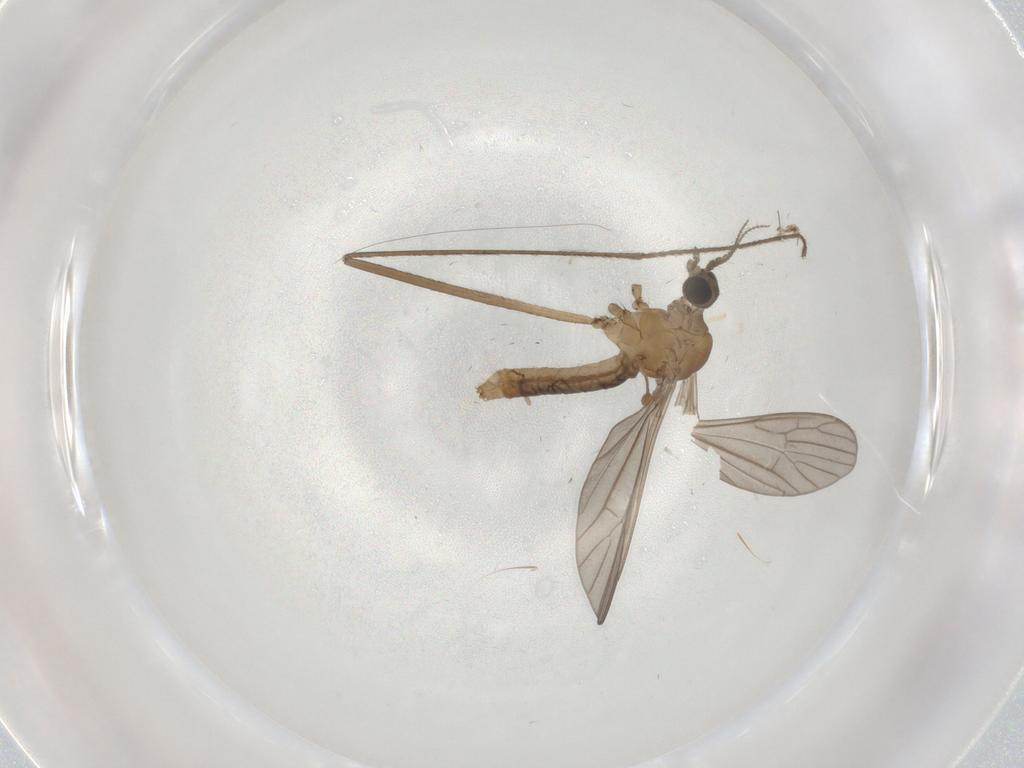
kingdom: Animalia
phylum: Arthropoda
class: Insecta
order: Diptera
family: Limoniidae
